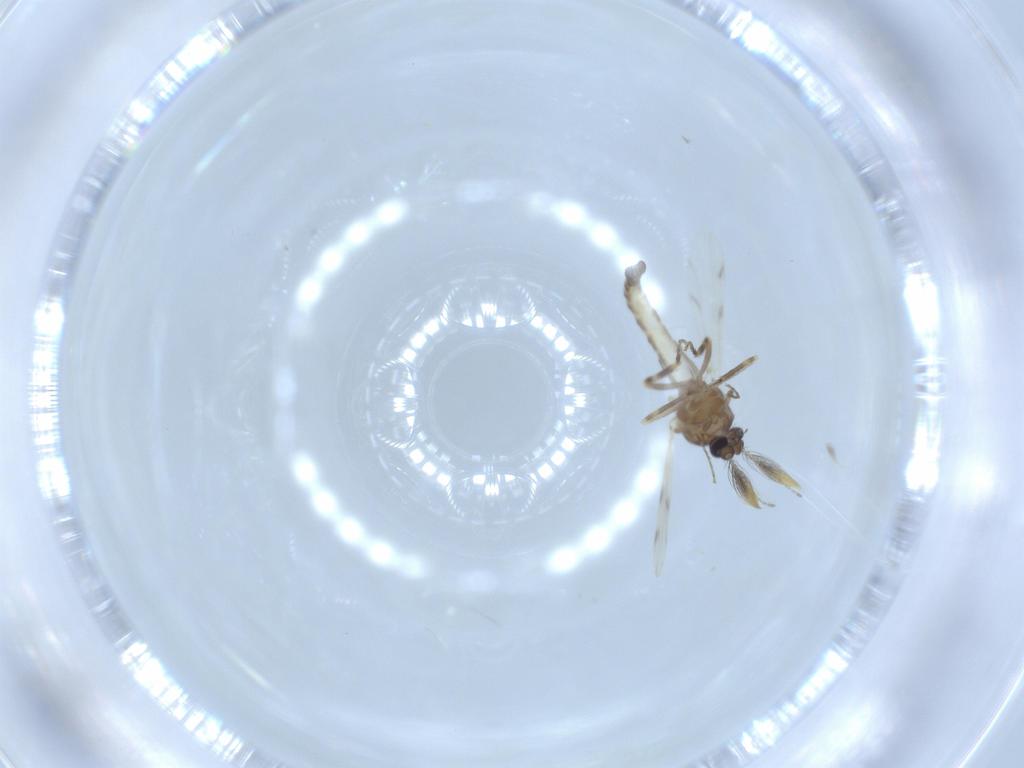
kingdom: Animalia
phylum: Arthropoda
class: Insecta
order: Diptera
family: Ceratopogonidae
